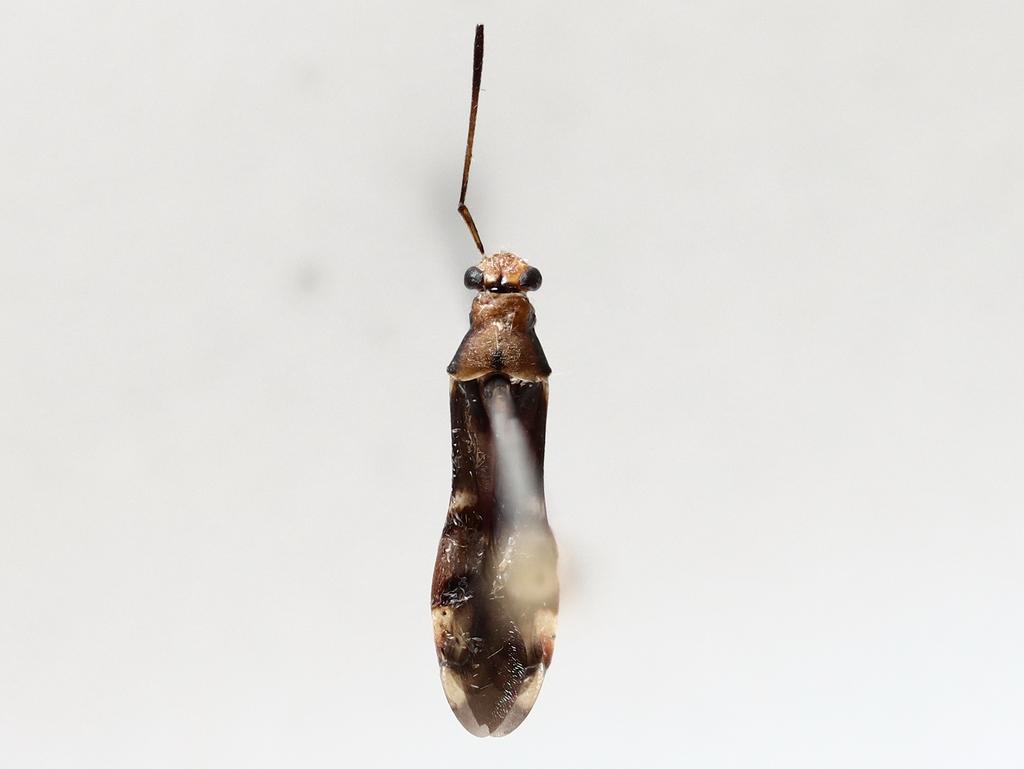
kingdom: Animalia
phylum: Arthropoda
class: Insecta
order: Diptera
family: Sciaridae
